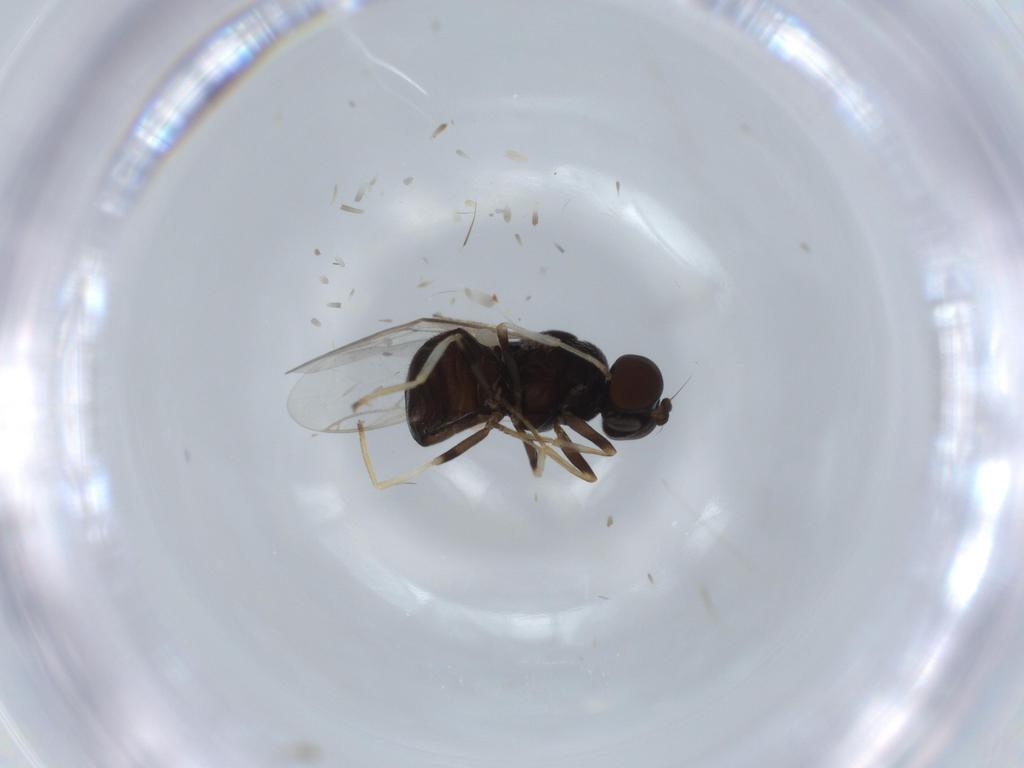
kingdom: Animalia
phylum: Arthropoda
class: Insecta
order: Diptera
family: Stratiomyidae
